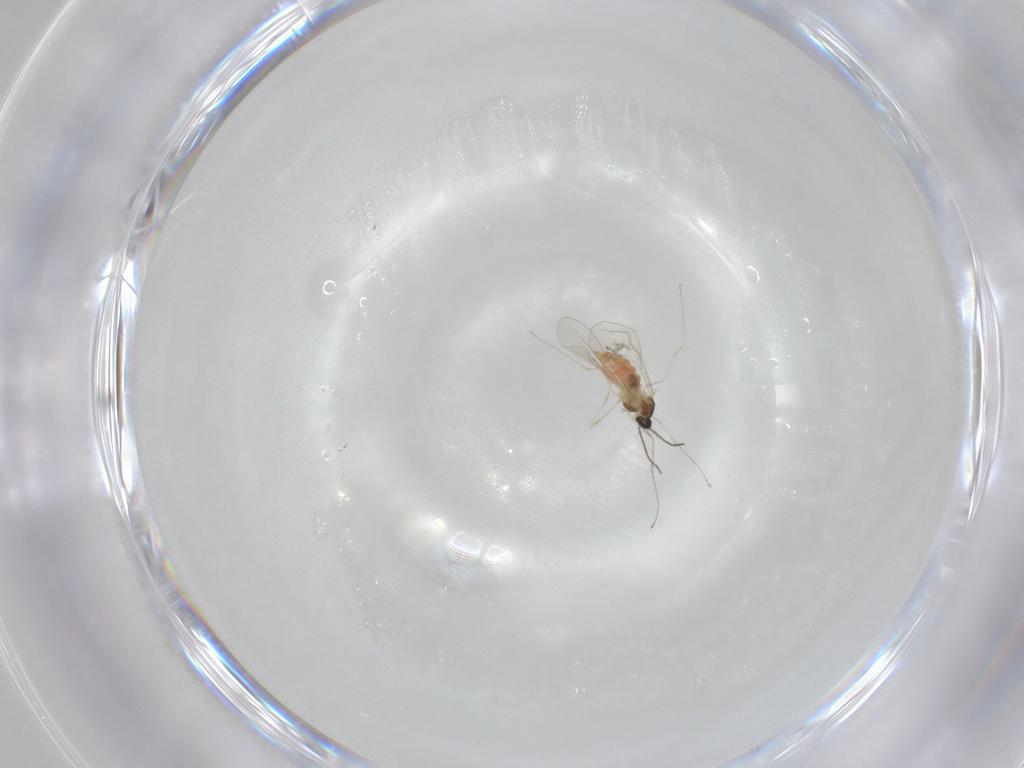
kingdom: Animalia
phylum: Arthropoda
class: Insecta
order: Diptera
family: Cecidomyiidae
